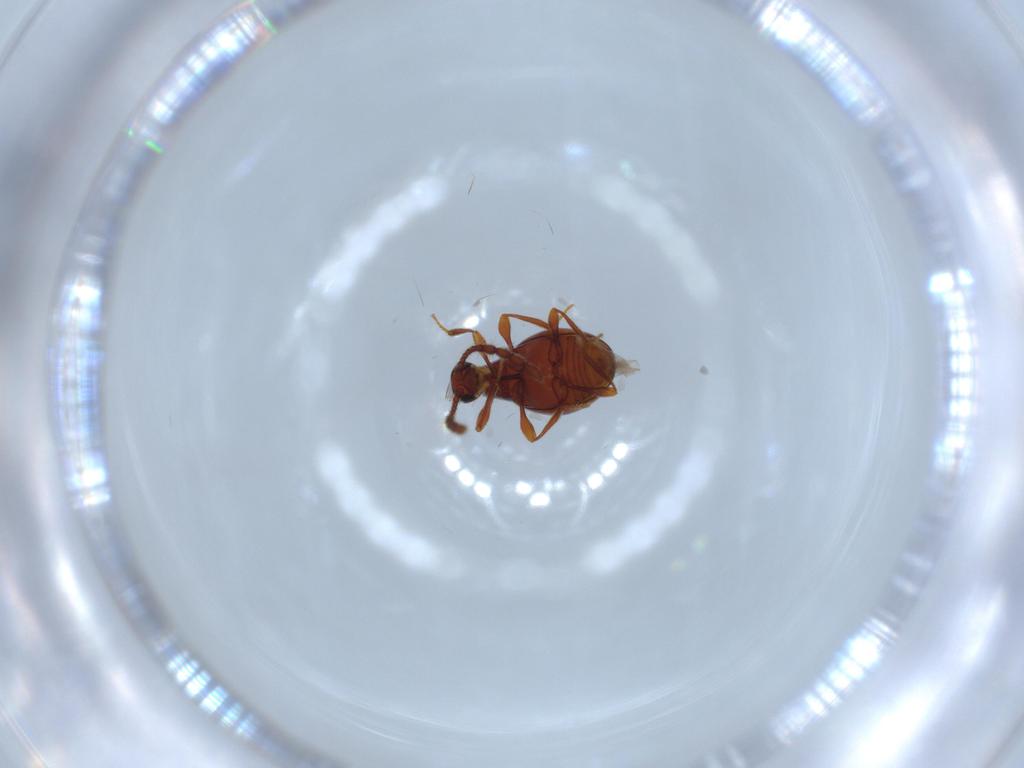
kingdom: Animalia
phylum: Arthropoda
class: Insecta
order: Coleoptera
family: Staphylinidae
